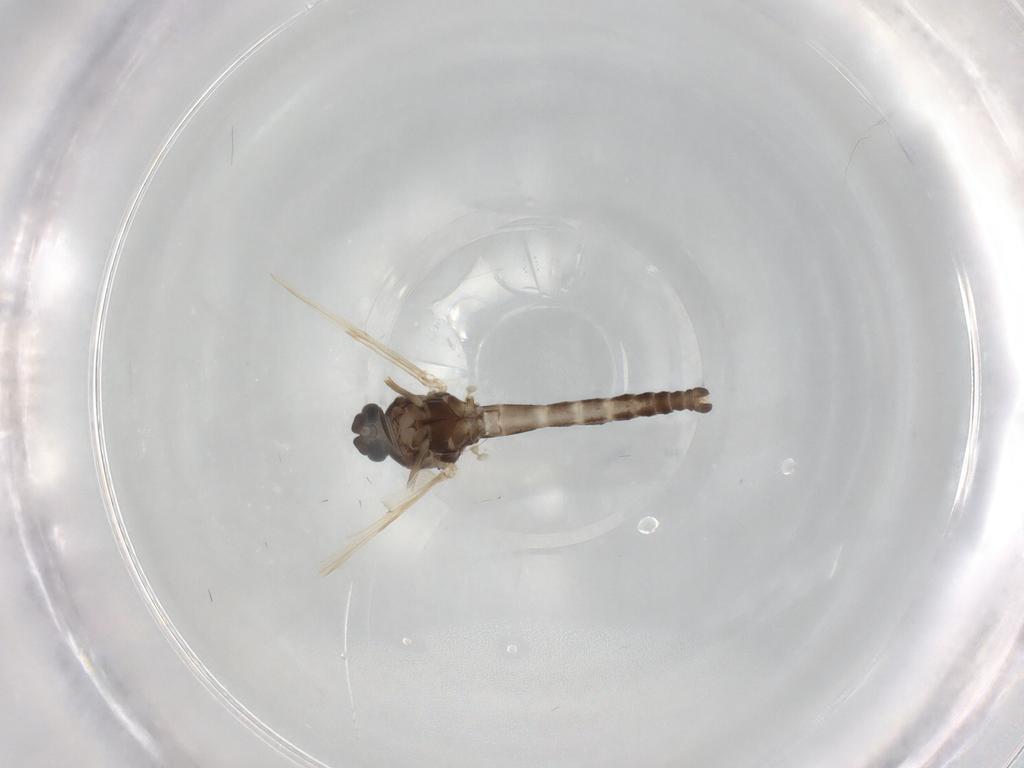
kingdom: Animalia
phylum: Arthropoda
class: Insecta
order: Diptera
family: Ceratopogonidae
